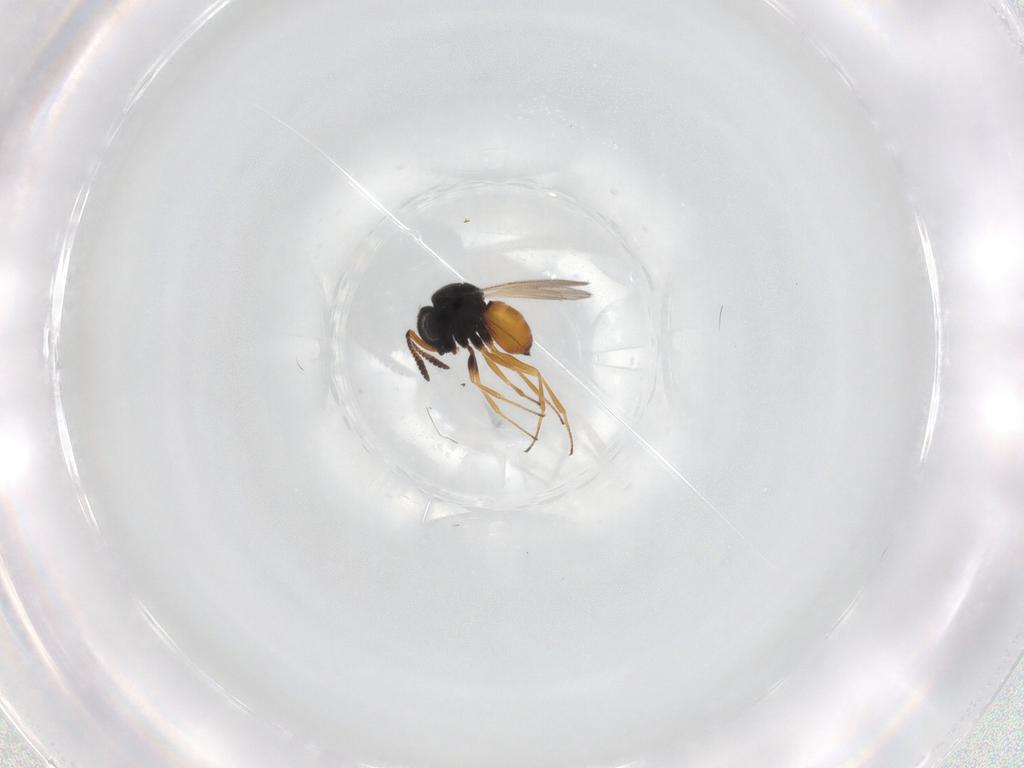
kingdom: Animalia
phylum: Arthropoda
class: Insecta
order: Hymenoptera
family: Scelionidae
